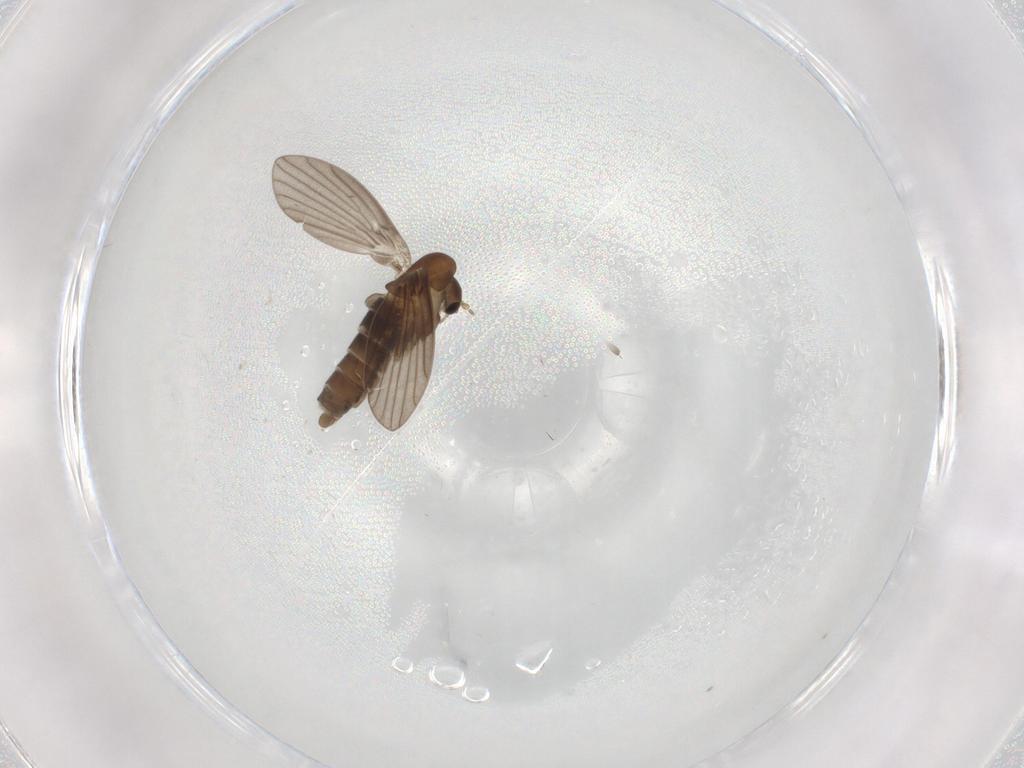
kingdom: Animalia
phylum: Arthropoda
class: Insecta
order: Diptera
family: Psychodidae
